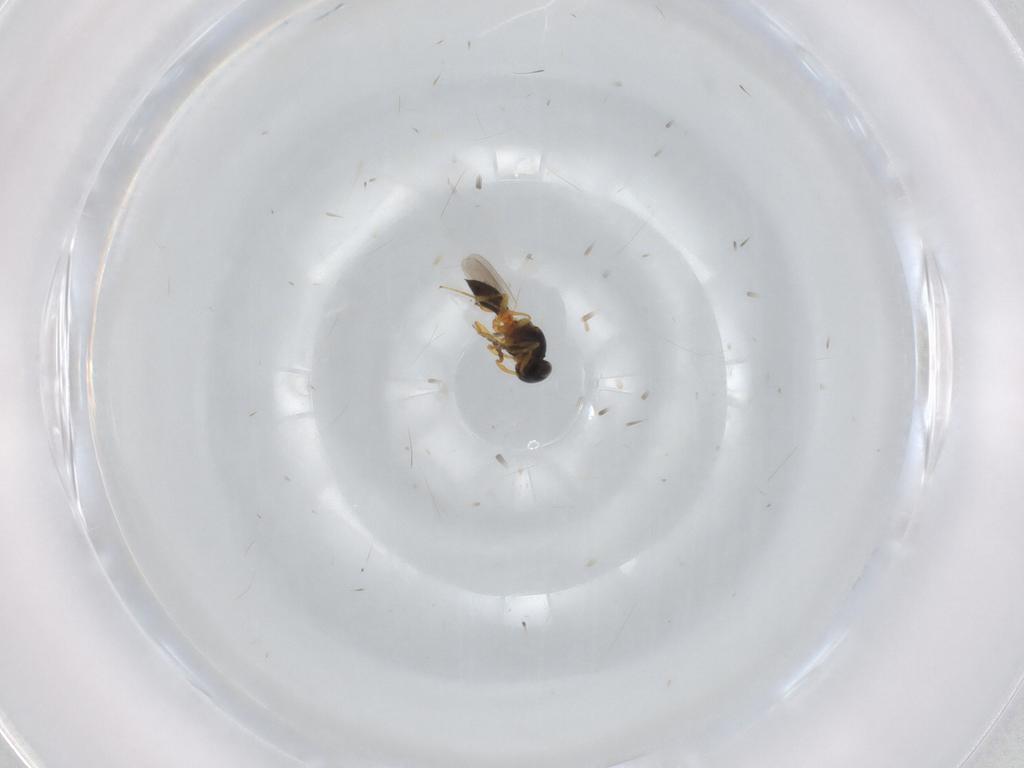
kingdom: Animalia
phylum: Arthropoda
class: Insecta
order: Hymenoptera
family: Platygastridae
